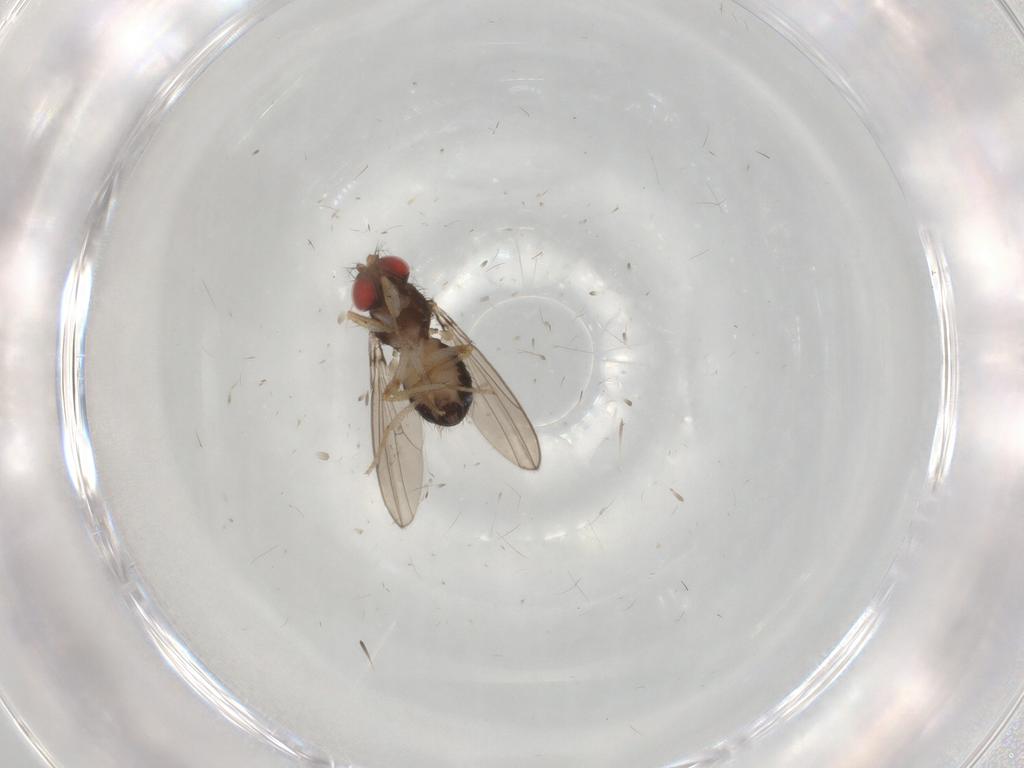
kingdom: Animalia
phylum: Arthropoda
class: Insecta
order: Diptera
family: Drosophilidae
